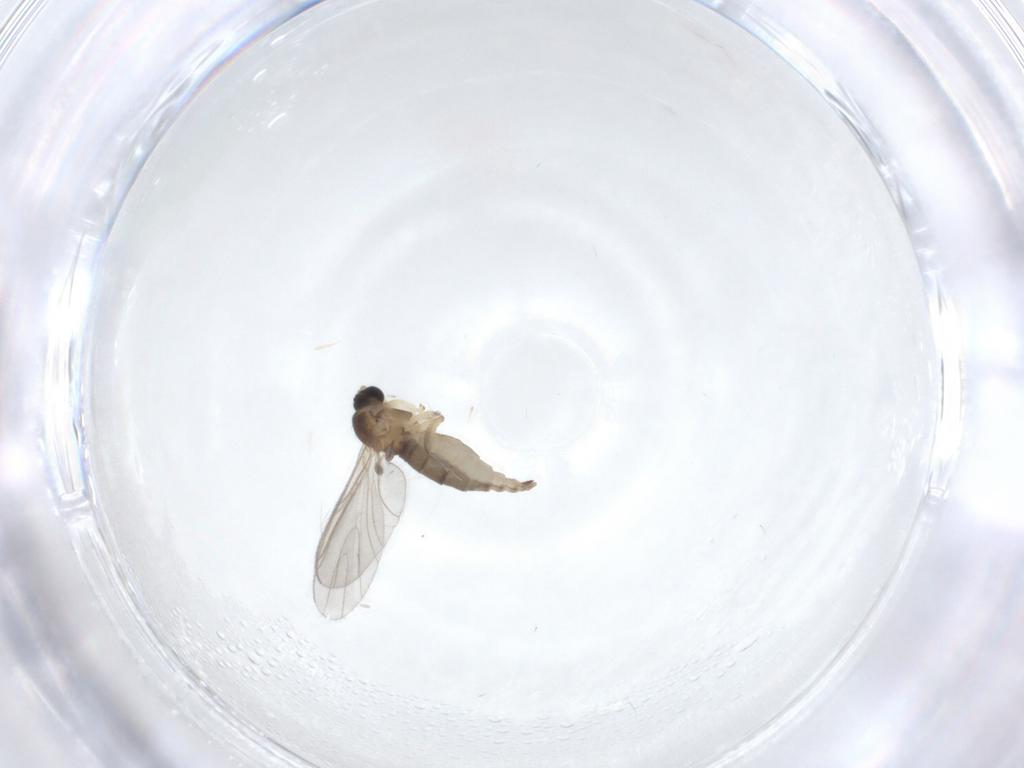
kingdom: Animalia
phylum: Arthropoda
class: Insecta
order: Diptera
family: Sciaridae
